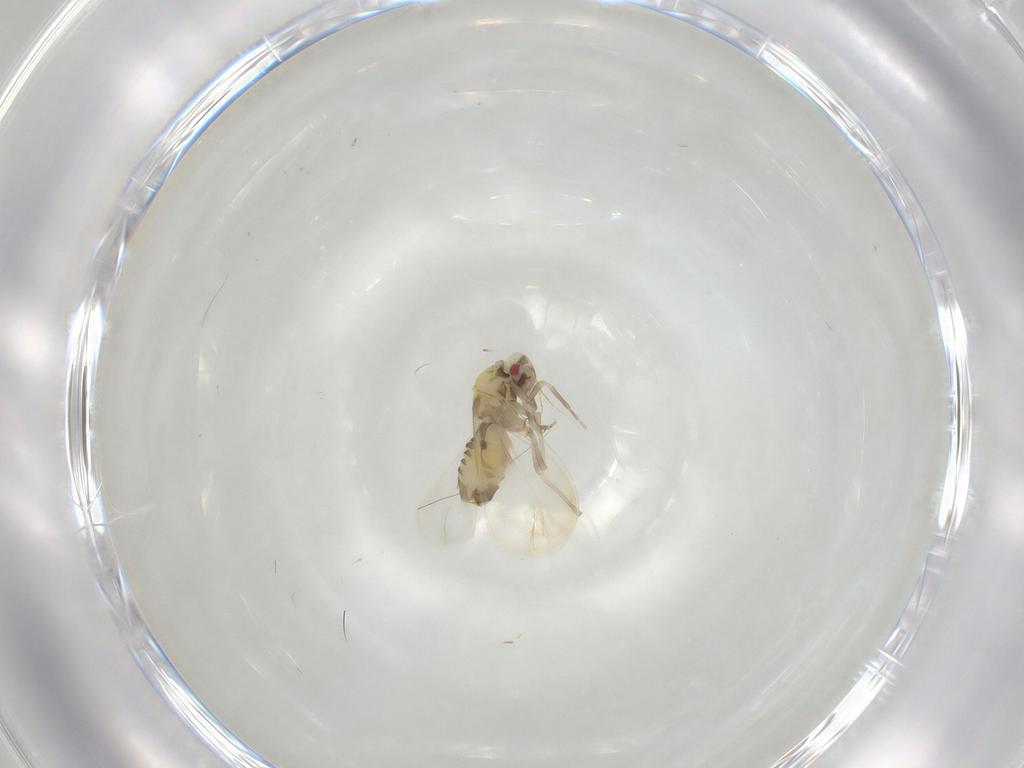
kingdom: Animalia
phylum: Arthropoda
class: Insecta
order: Hemiptera
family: Aleyrodidae
